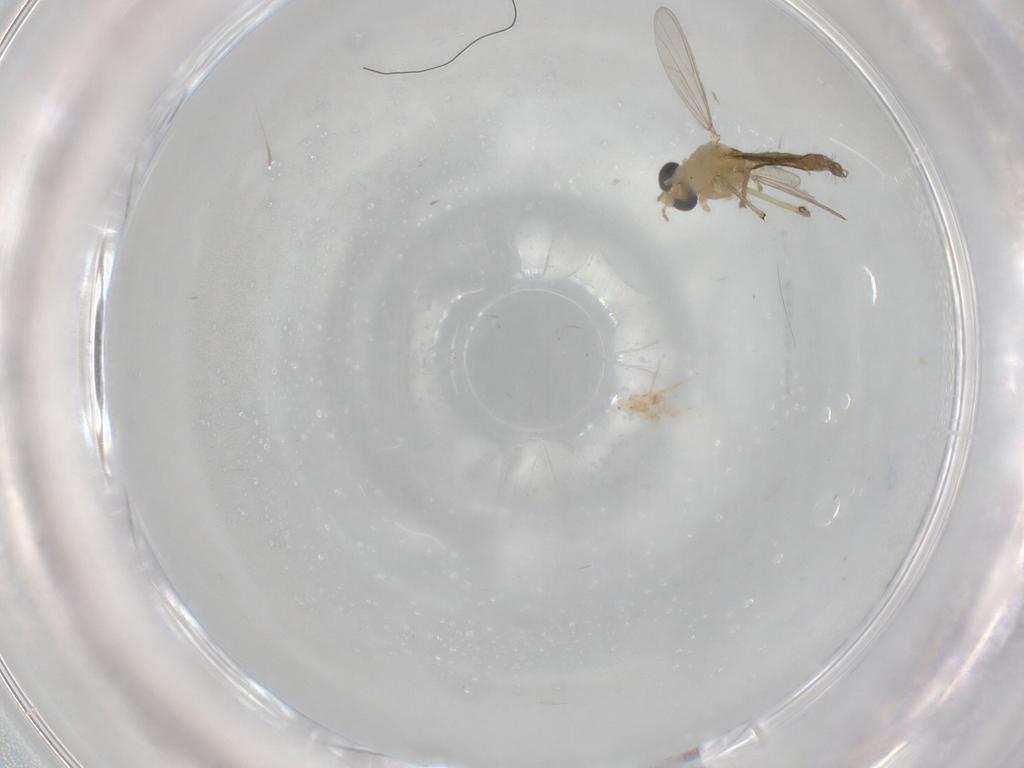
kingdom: Animalia
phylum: Arthropoda
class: Insecta
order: Diptera
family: Chironomidae
